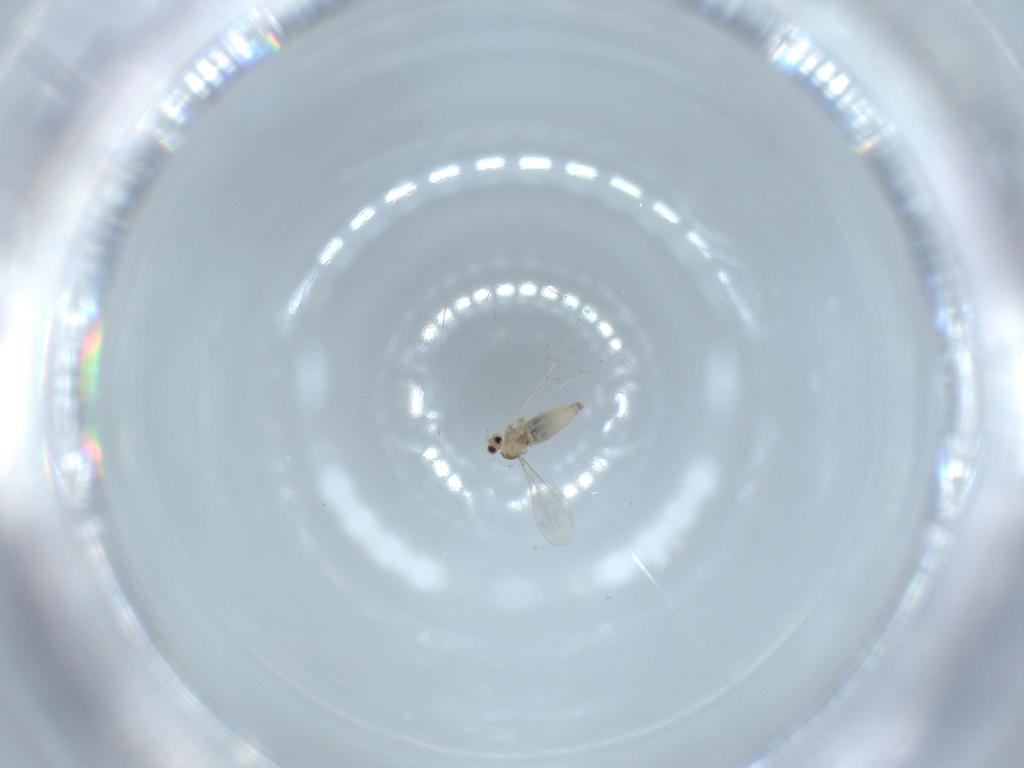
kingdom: Animalia
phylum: Arthropoda
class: Insecta
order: Diptera
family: Cecidomyiidae
